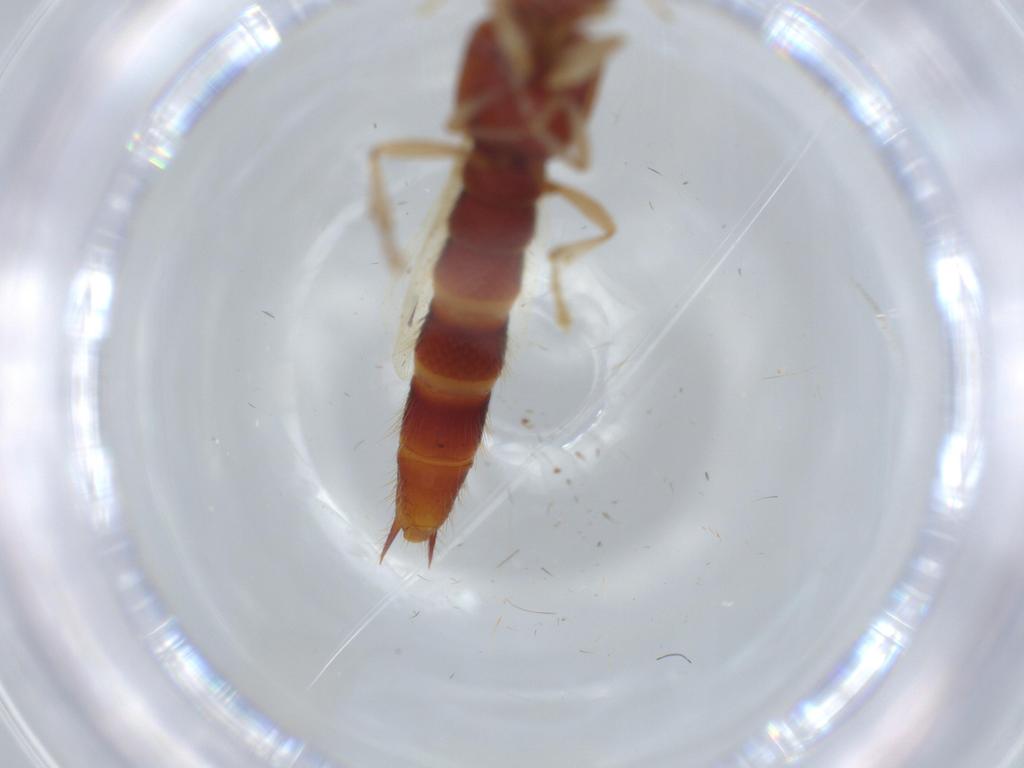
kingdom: Animalia
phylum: Arthropoda
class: Insecta
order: Coleoptera
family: Staphylinidae
